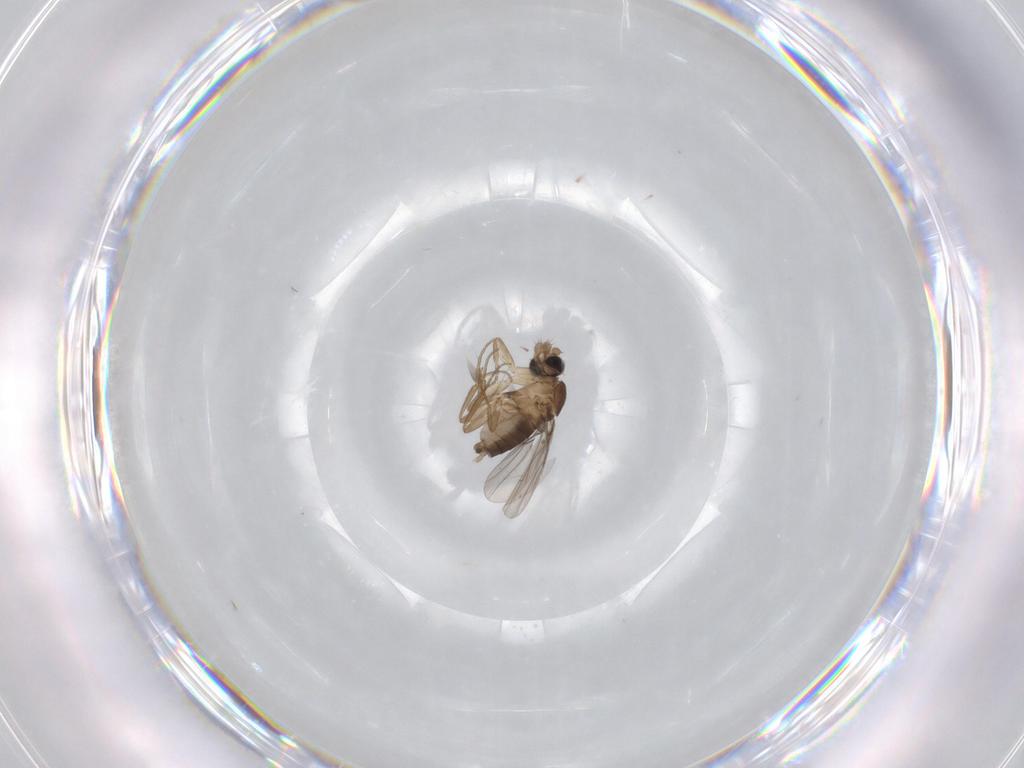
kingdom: Animalia
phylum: Arthropoda
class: Insecta
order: Diptera
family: Phoridae
